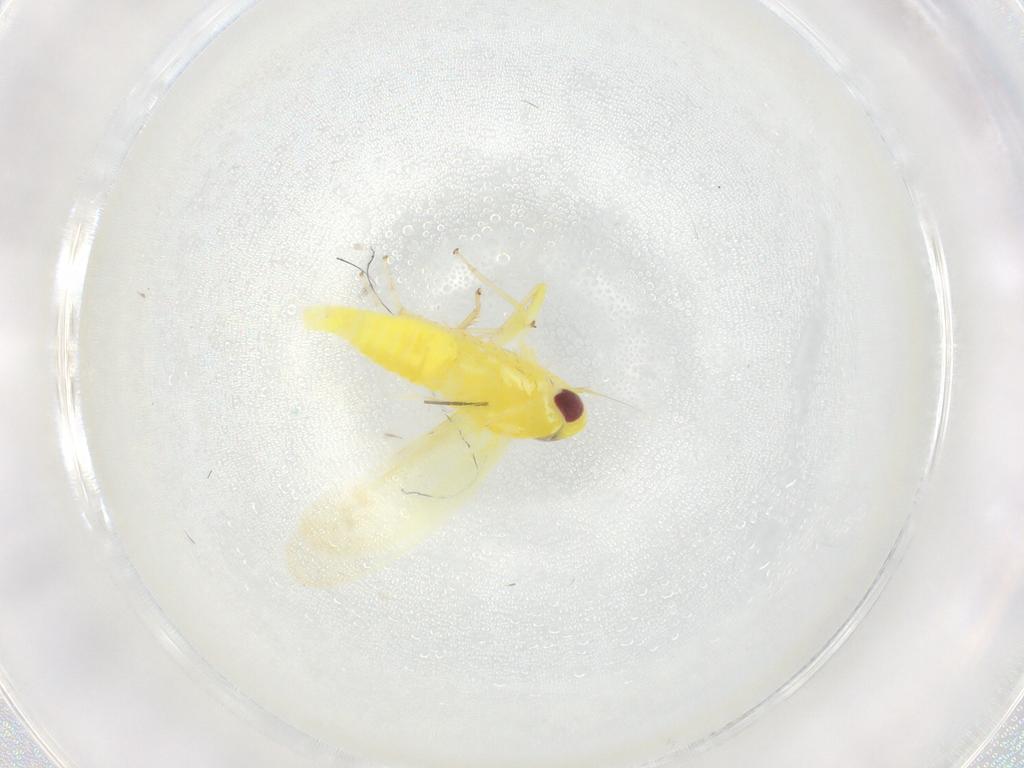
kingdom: Animalia
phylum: Arthropoda
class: Insecta
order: Hemiptera
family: Cicadellidae
